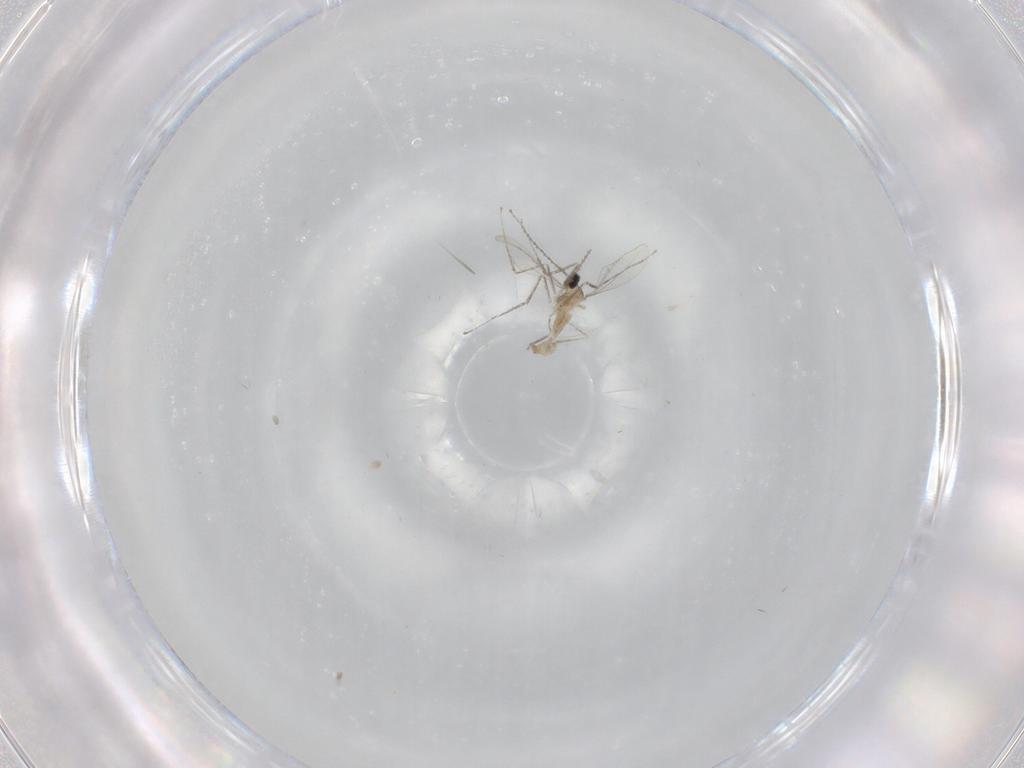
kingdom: Animalia
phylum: Arthropoda
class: Insecta
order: Diptera
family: Cecidomyiidae
